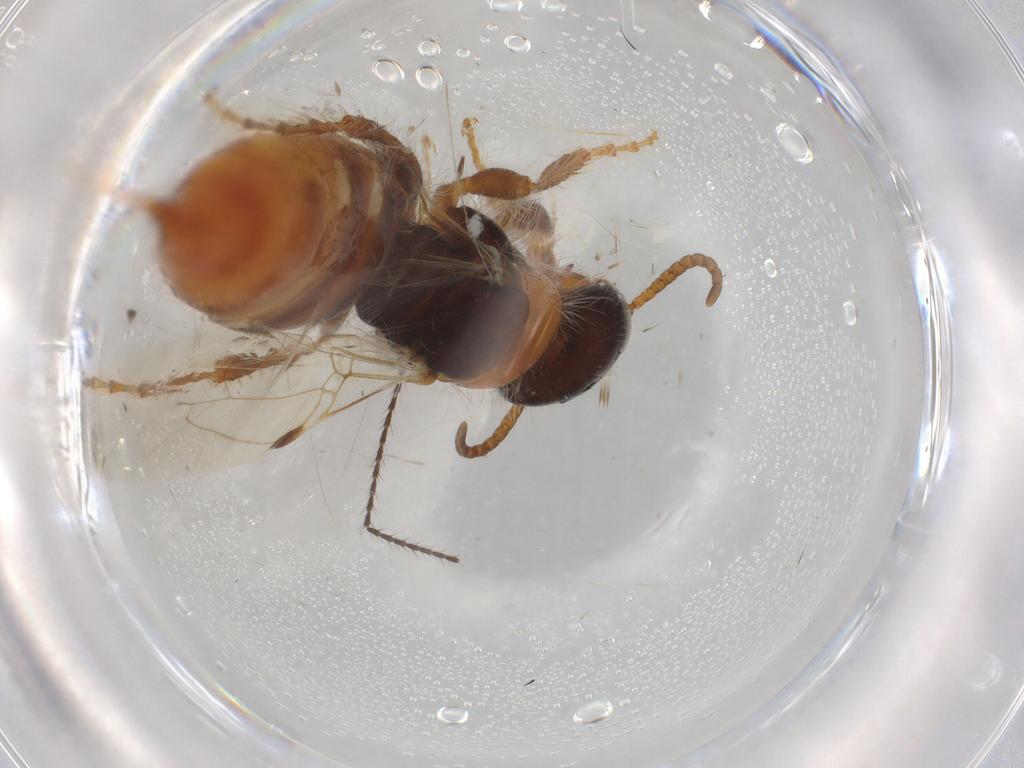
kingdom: Animalia
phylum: Arthropoda
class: Insecta
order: Hymenoptera
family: Thynnidae
